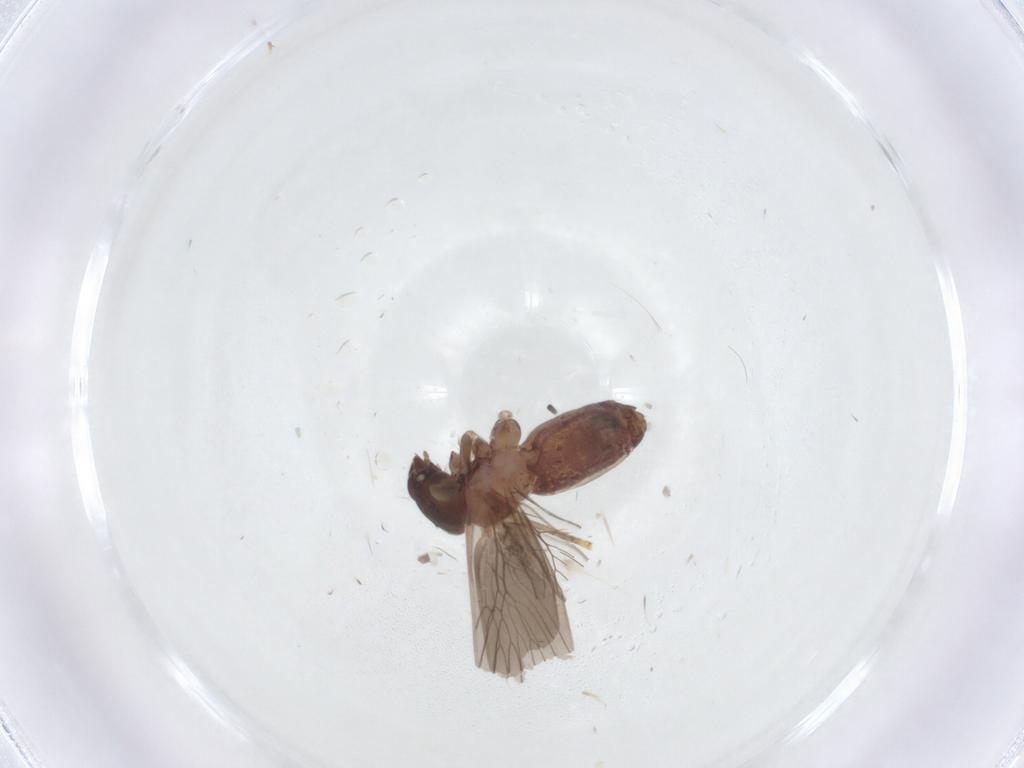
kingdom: Animalia
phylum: Arthropoda
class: Insecta
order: Psocodea
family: Lepidopsocidae
